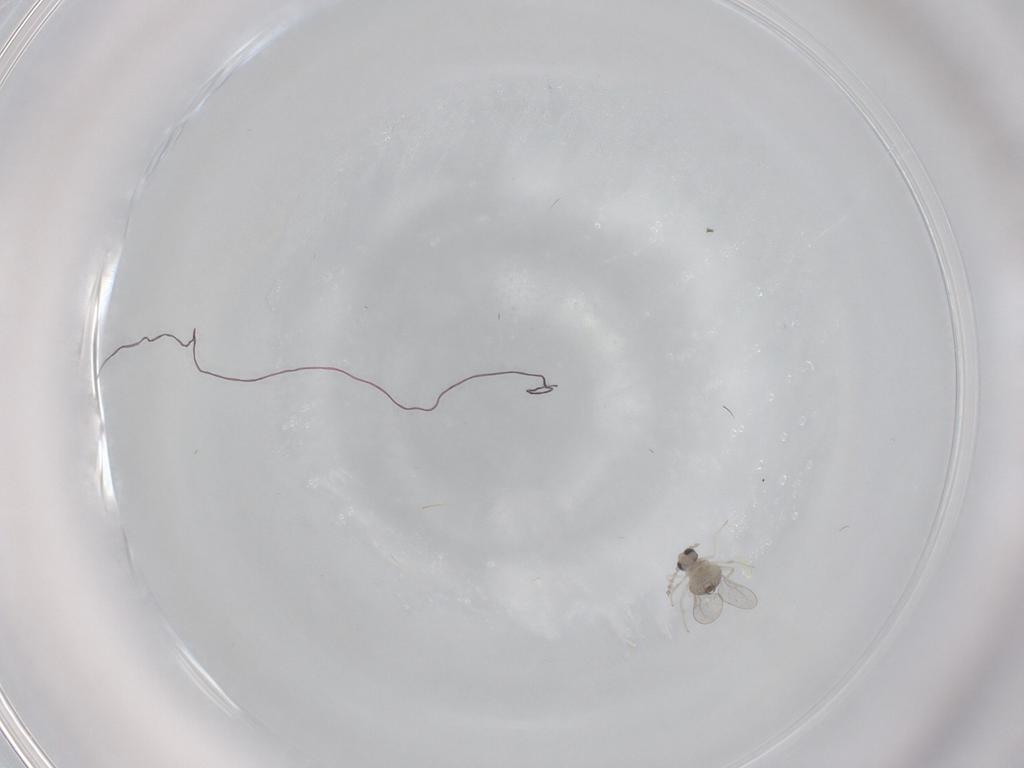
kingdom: Animalia
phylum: Arthropoda
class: Insecta
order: Diptera
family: Cecidomyiidae
